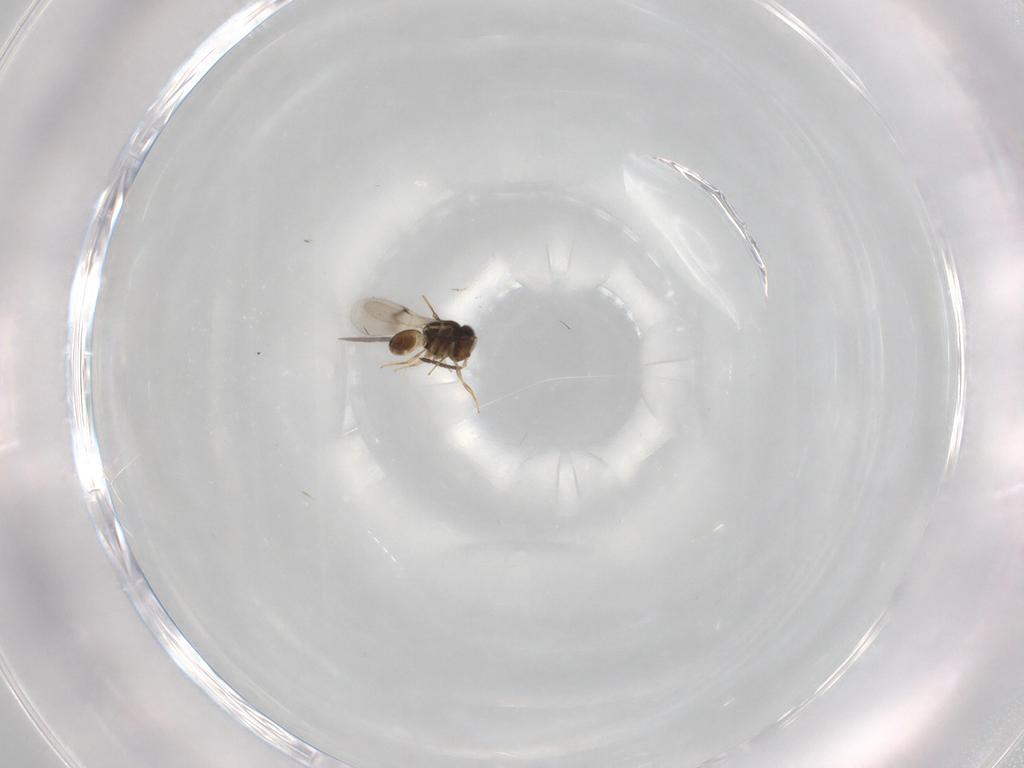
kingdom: Animalia
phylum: Arthropoda
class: Insecta
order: Hymenoptera
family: Scelionidae
